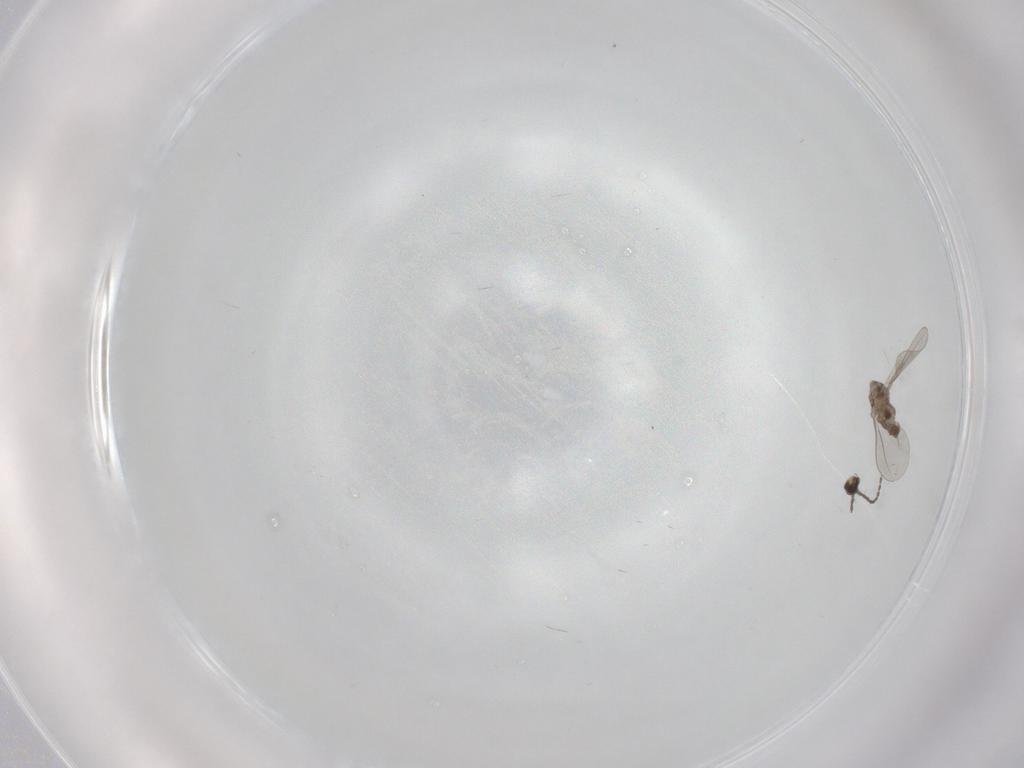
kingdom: Animalia
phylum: Arthropoda
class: Insecta
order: Diptera
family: Cecidomyiidae
